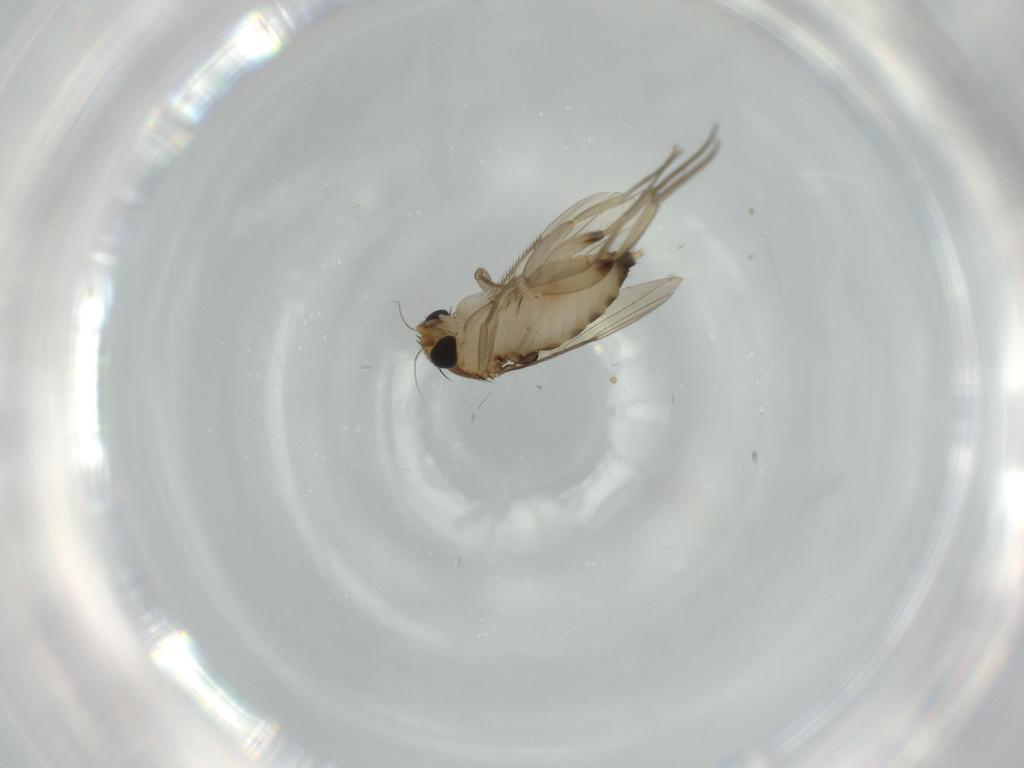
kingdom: Animalia
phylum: Arthropoda
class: Insecta
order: Diptera
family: Phoridae
